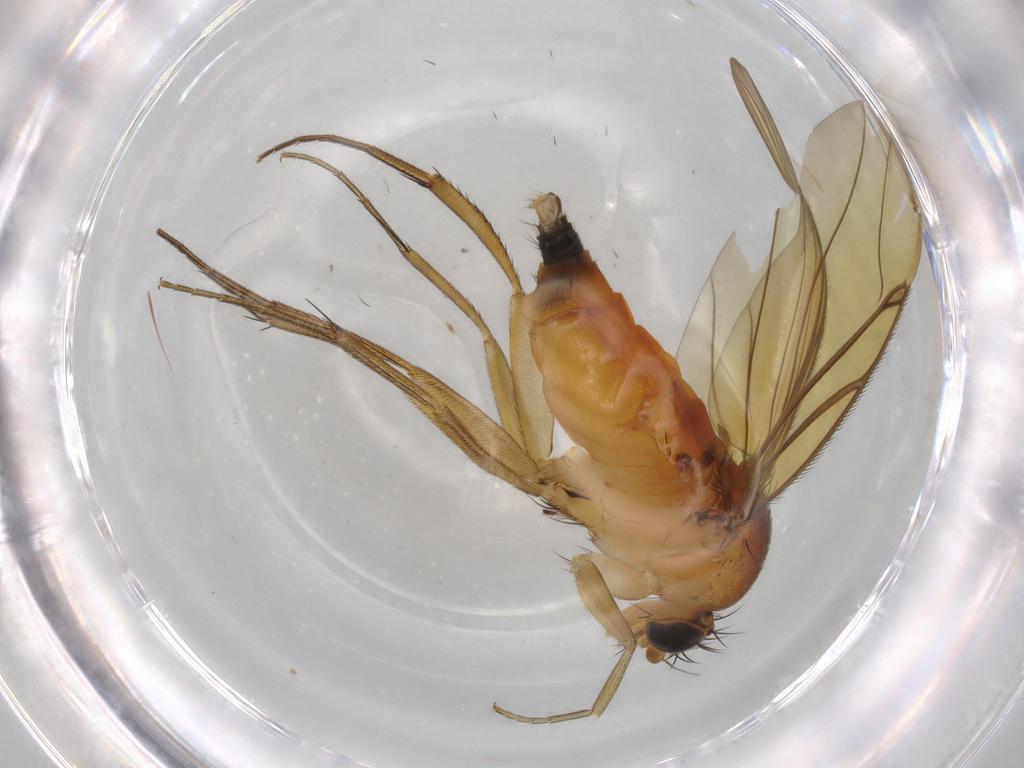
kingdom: Animalia
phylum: Arthropoda
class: Insecta
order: Diptera
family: Phoridae
